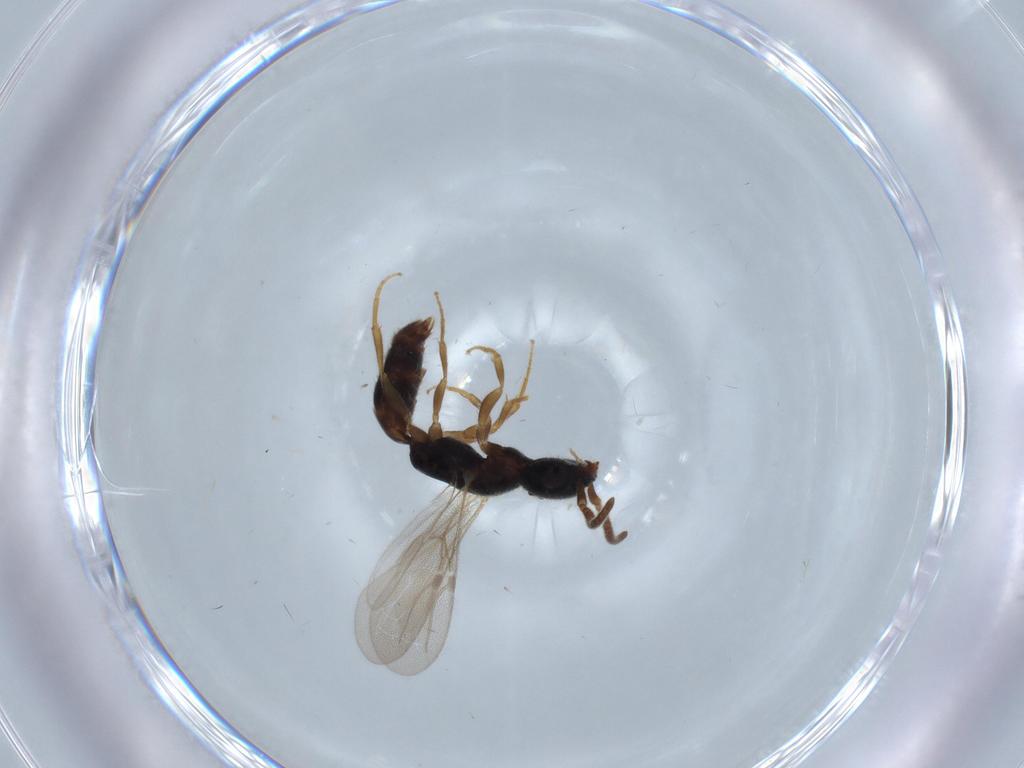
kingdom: Animalia
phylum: Arthropoda
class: Insecta
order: Hymenoptera
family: Bethylidae
